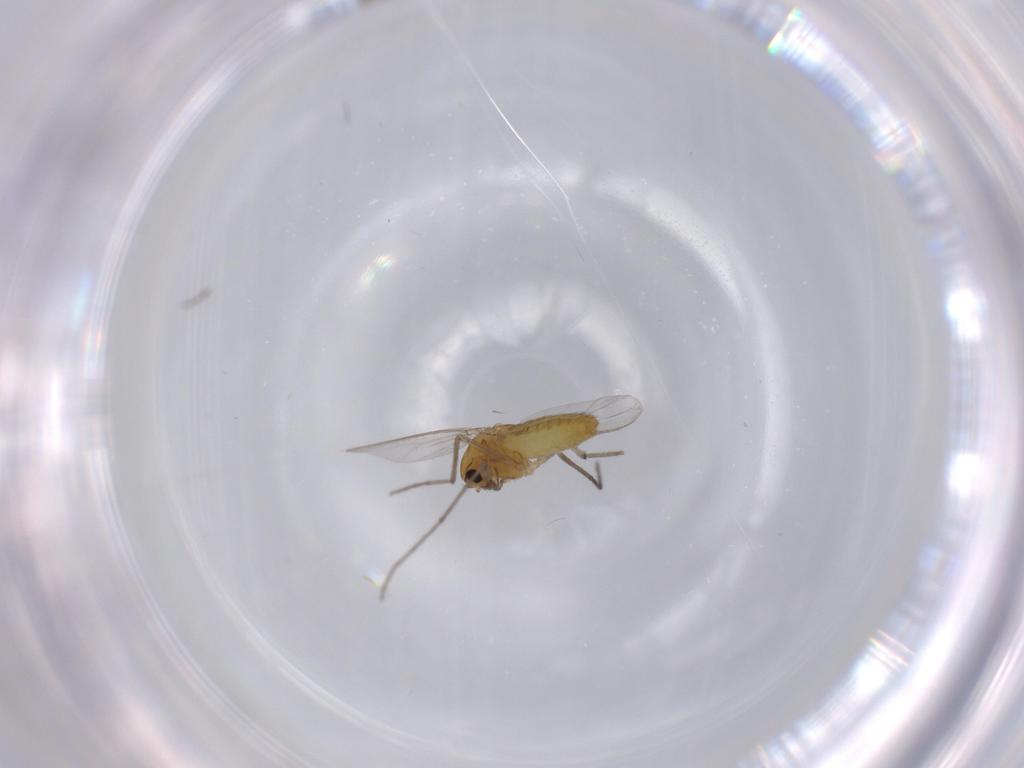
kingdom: Animalia
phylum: Arthropoda
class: Insecta
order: Diptera
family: Chironomidae
